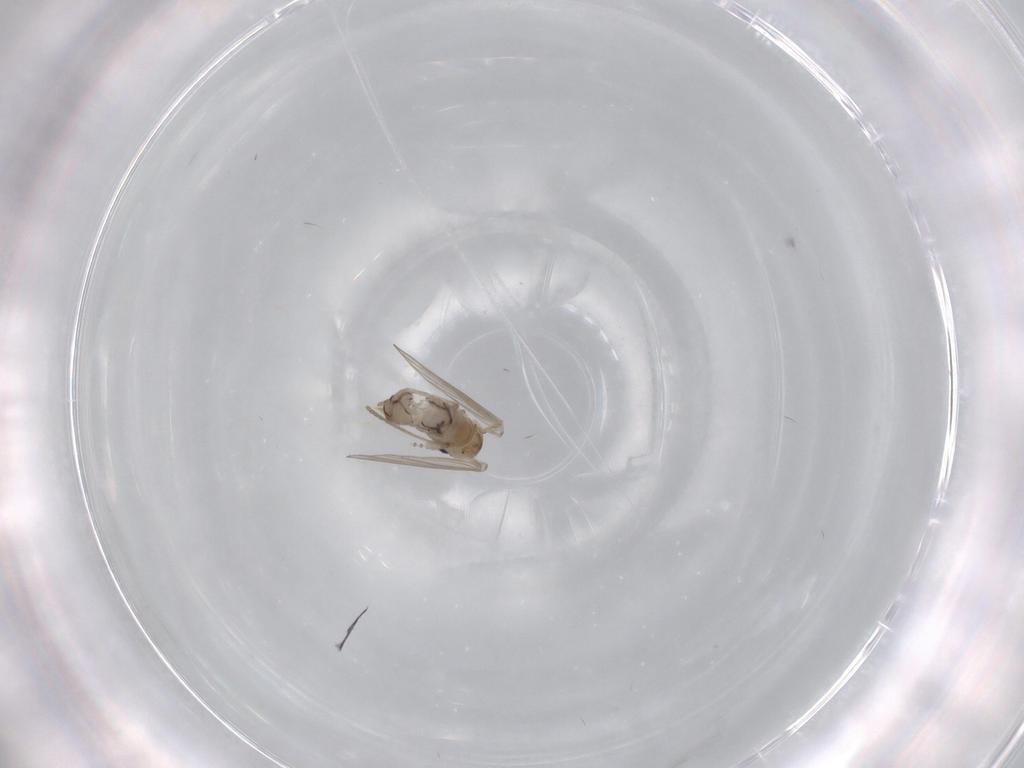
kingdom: Animalia
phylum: Arthropoda
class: Insecta
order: Diptera
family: Psychodidae
